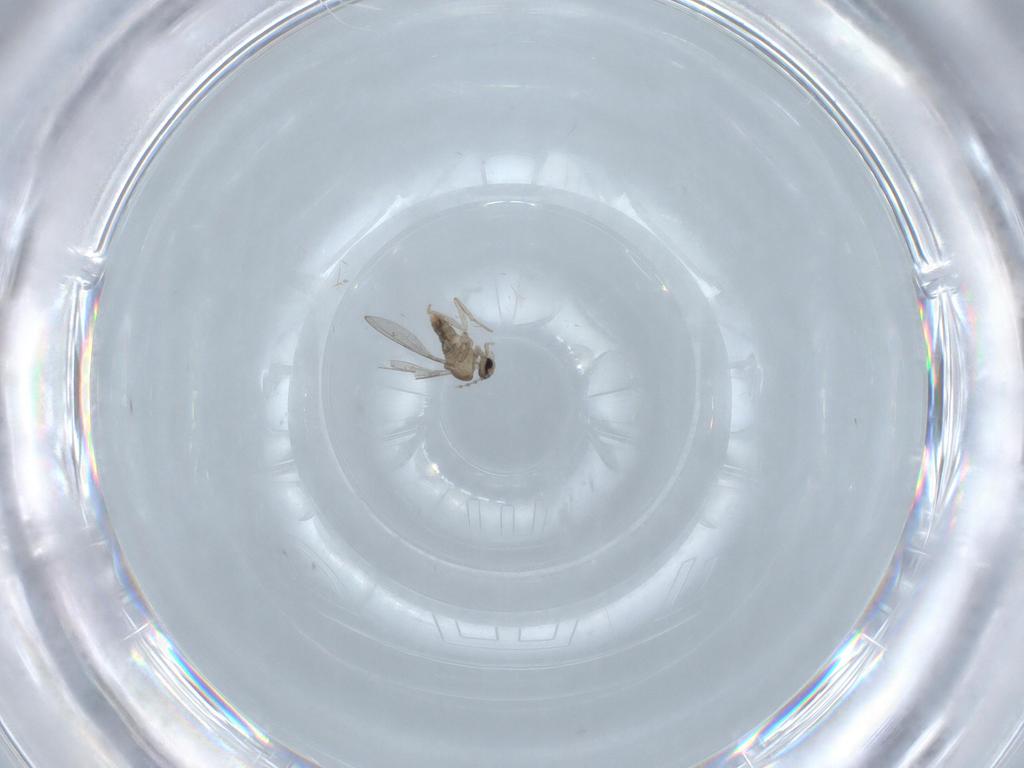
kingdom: Animalia
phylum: Arthropoda
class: Insecta
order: Diptera
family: Cecidomyiidae
